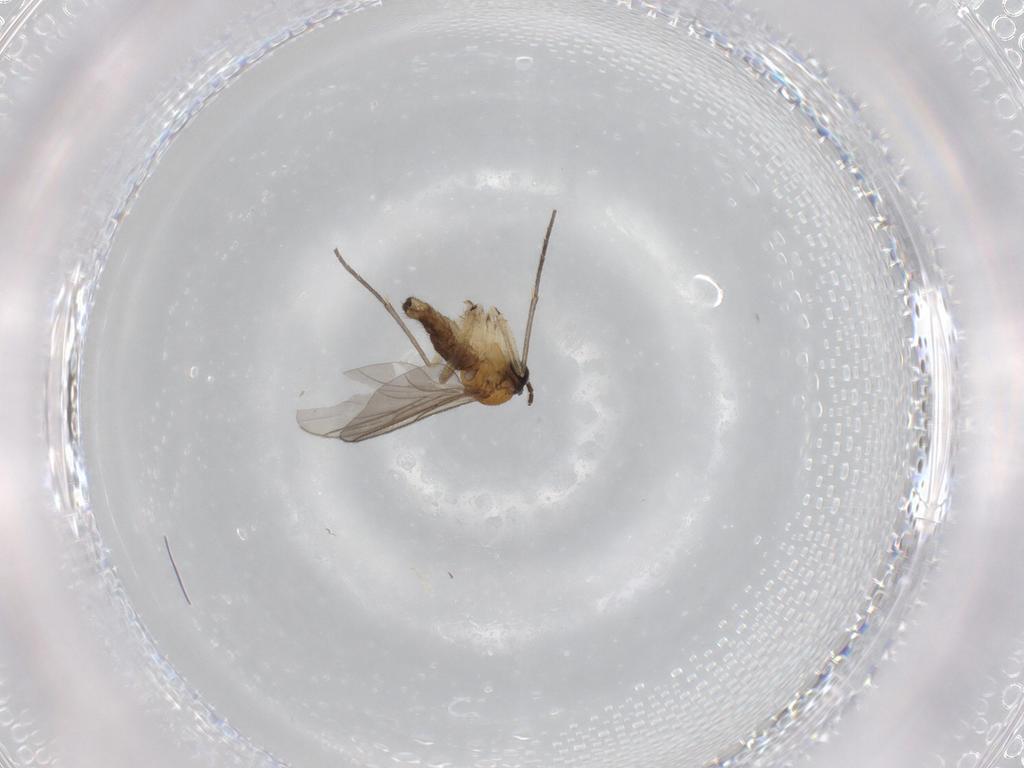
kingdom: Animalia
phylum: Arthropoda
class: Insecta
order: Diptera
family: Sciaridae
